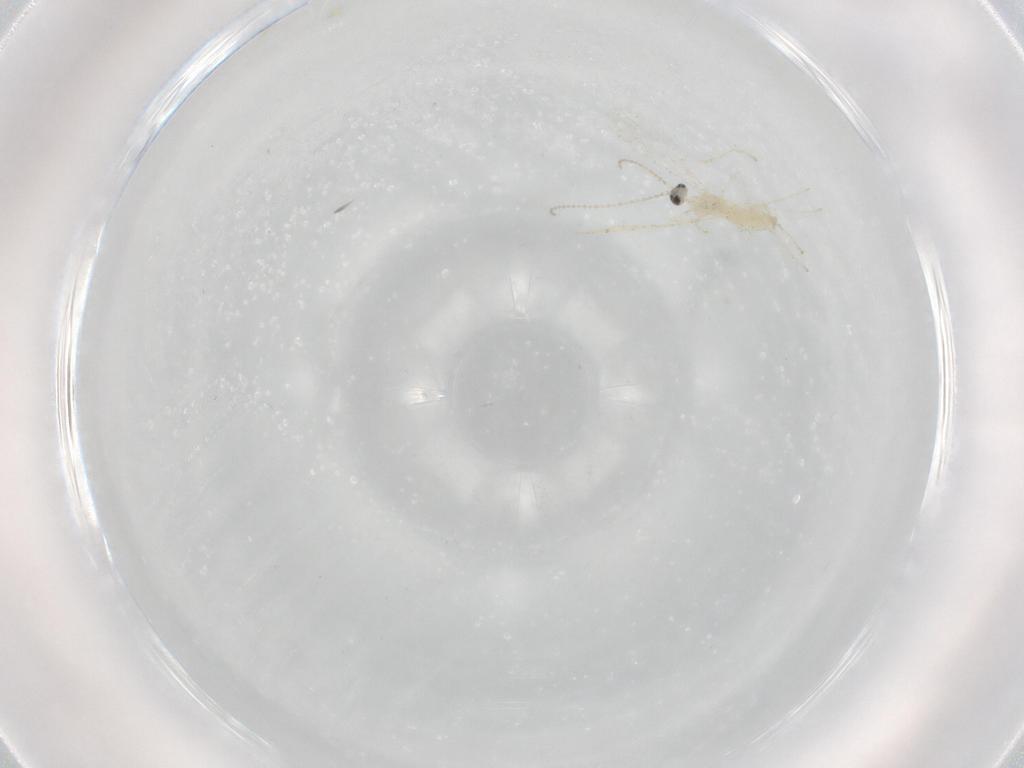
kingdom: Animalia
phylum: Arthropoda
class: Insecta
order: Diptera
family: Cecidomyiidae
